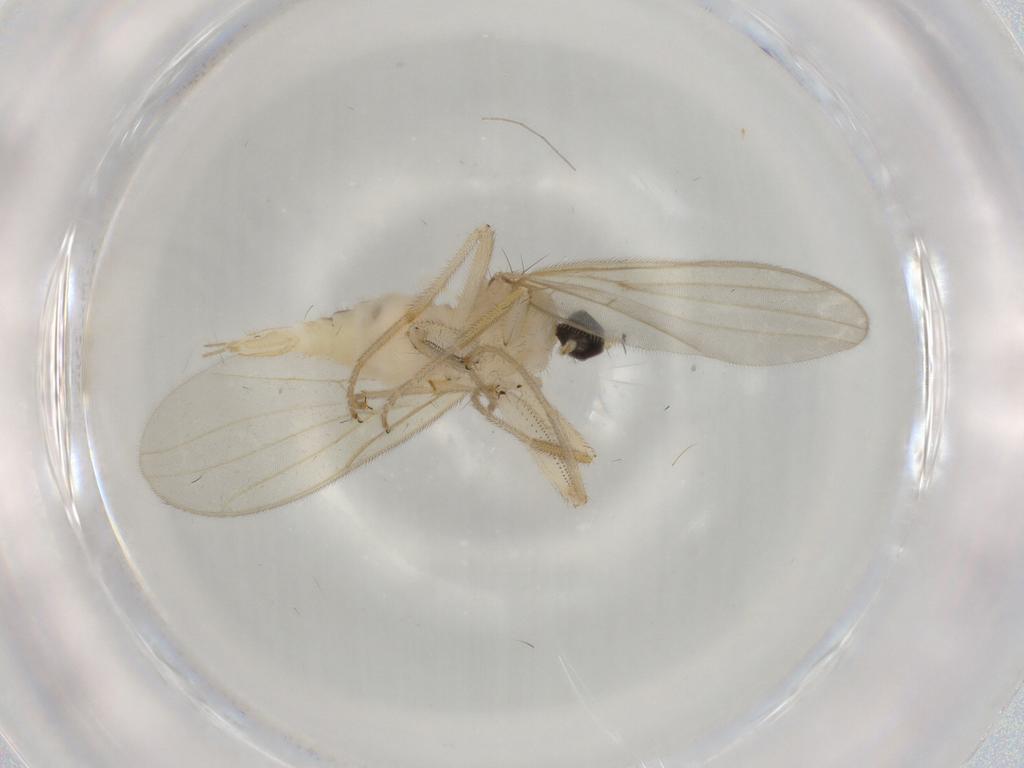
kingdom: Animalia
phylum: Arthropoda
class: Insecta
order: Diptera
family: Hybotidae
